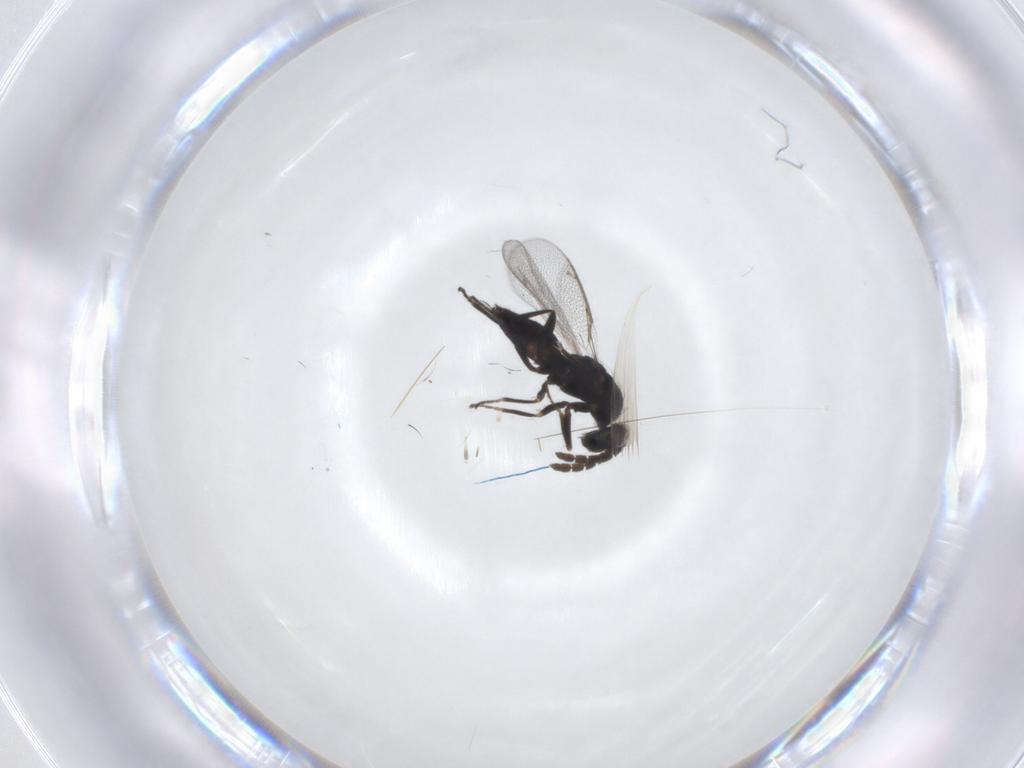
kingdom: Animalia
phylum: Arthropoda
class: Insecta
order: Hymenoptera
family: Eulophidae
